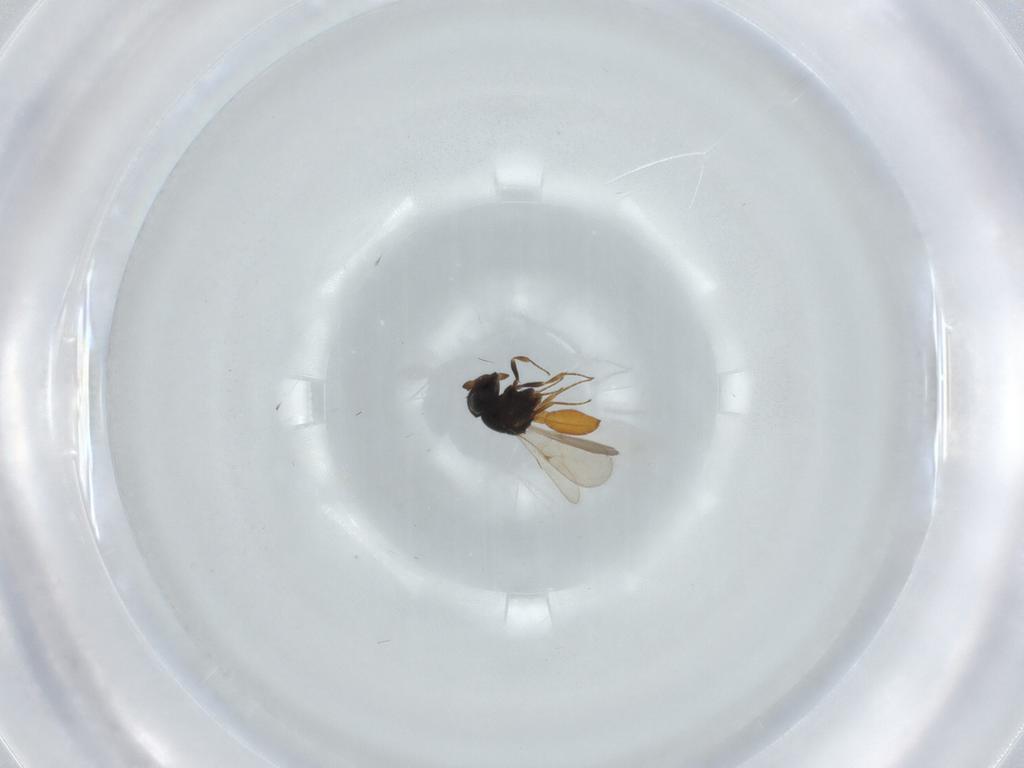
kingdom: Animalia
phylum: Arthropoda
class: Insecta
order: Hymenoptera
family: Scelionidae
